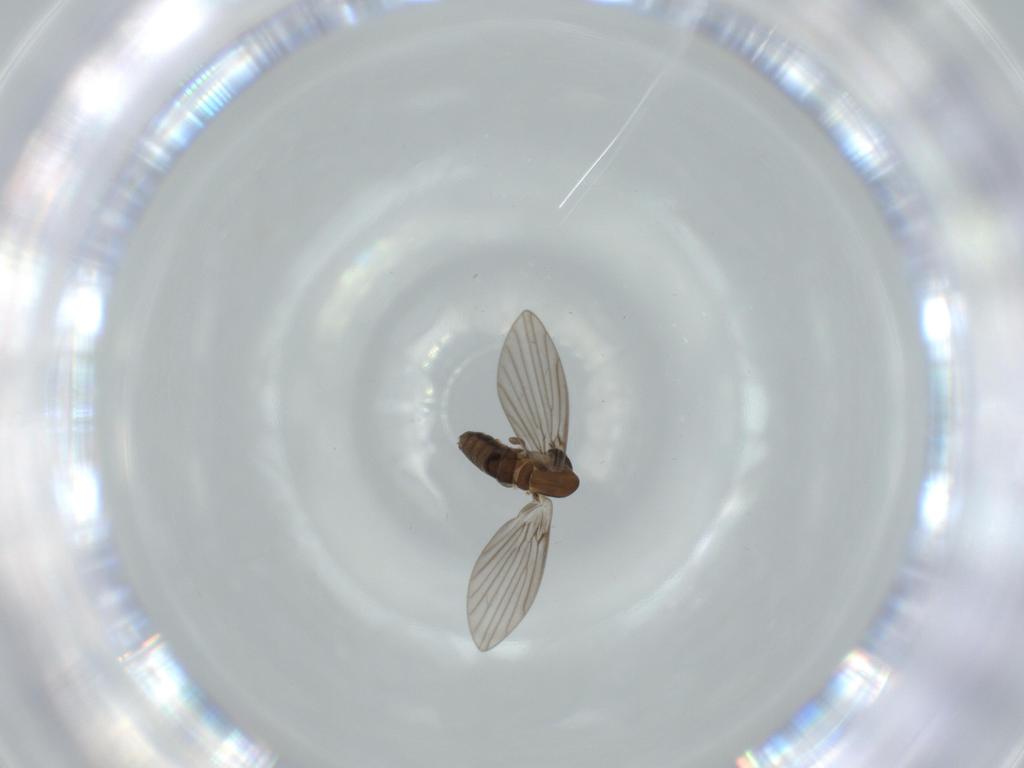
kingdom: Animalia
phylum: Arthropoda
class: Insecta
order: Diptera
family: Psychodidae
